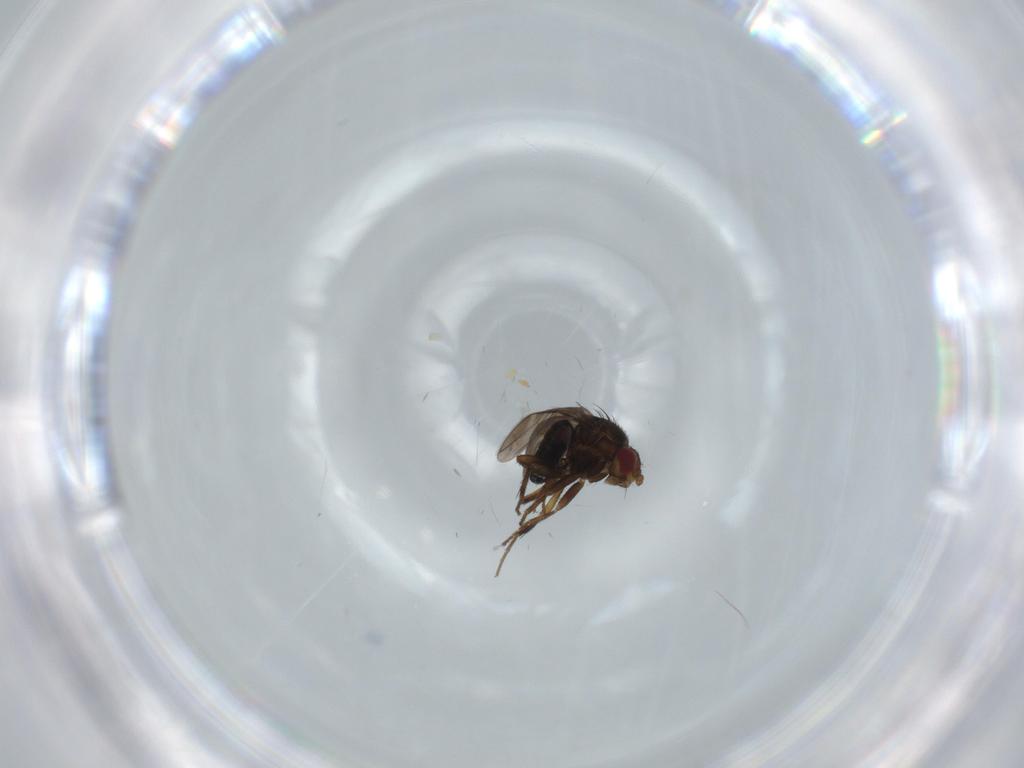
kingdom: Animalia
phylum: Arthropoda
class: Insecta
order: Diptera
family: Sphaeroceridae
